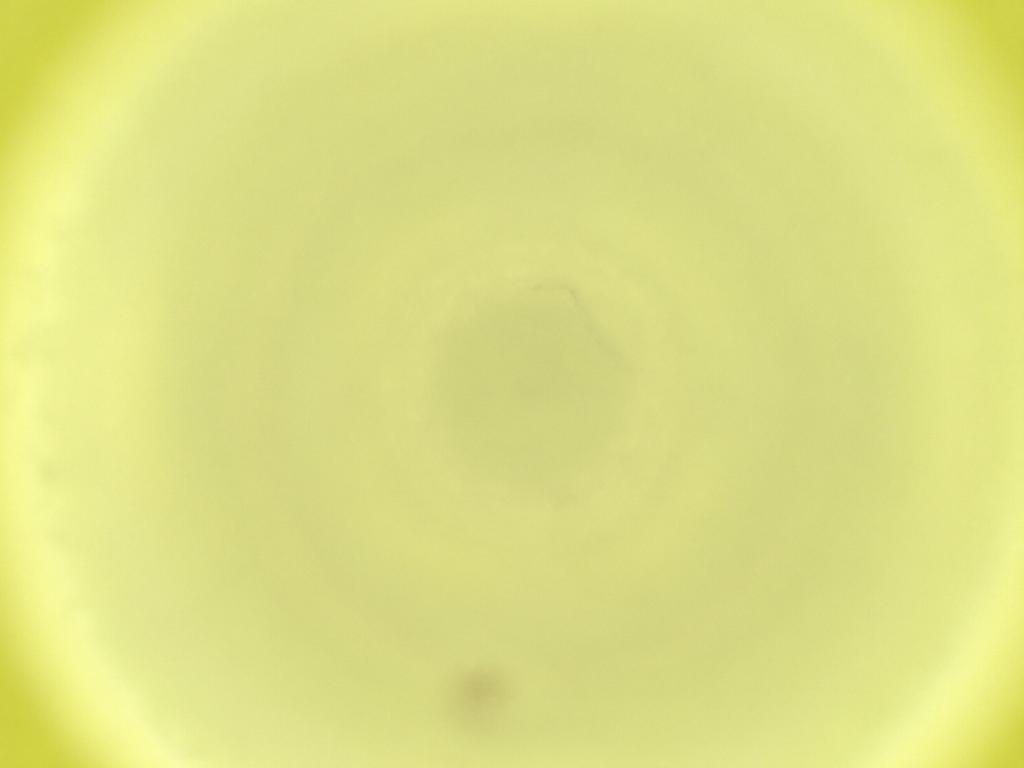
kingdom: Animalia
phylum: Arthropoda
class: Insecta
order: Diptera
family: Cecidomyiidae
